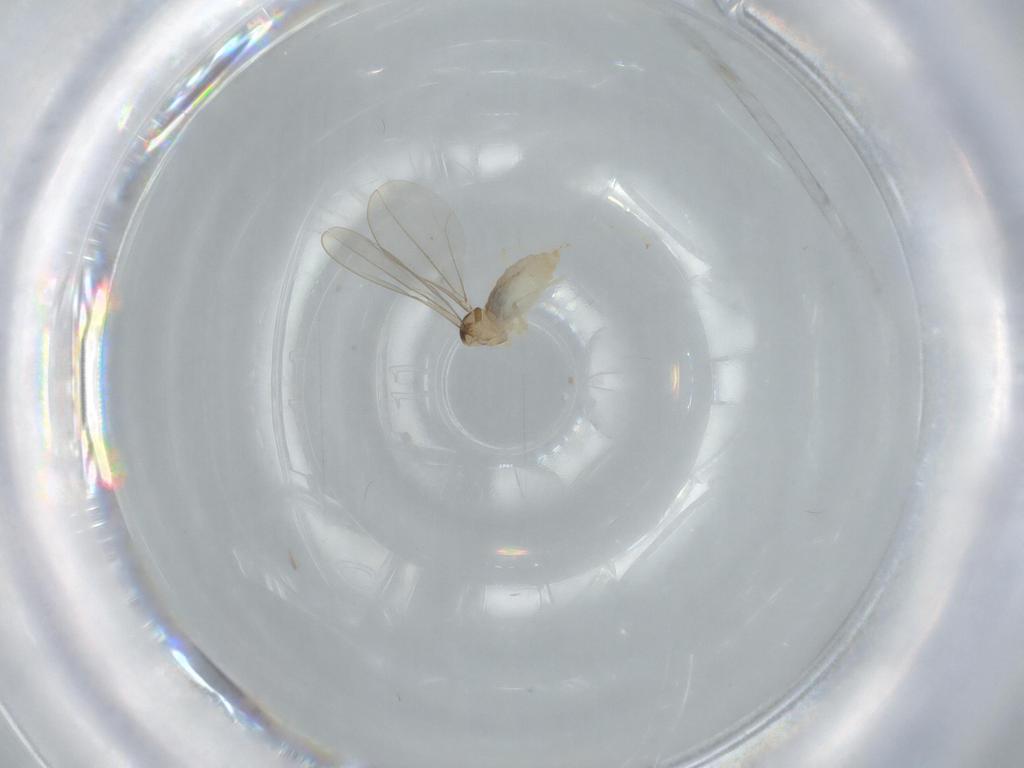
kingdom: Animalia
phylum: Arthropoda
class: Insecta
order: Diptera
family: Cecidomyiidae
